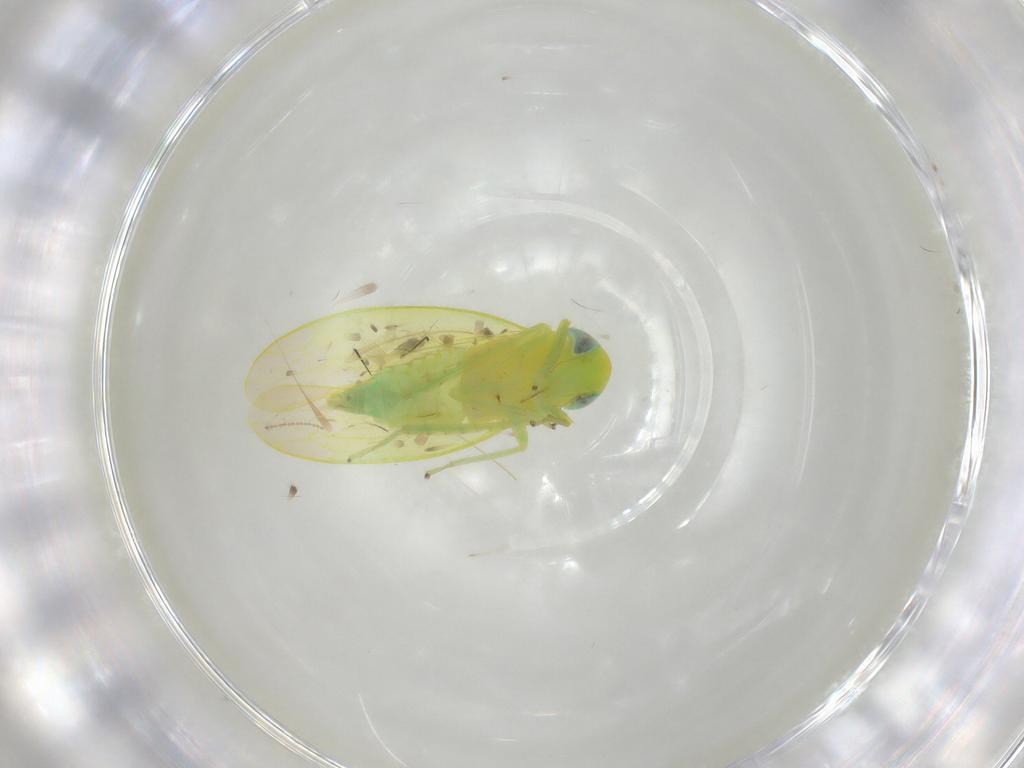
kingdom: Animalia
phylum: Arthropoda
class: Insecta
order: Hemiptera
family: Cicadellidae
